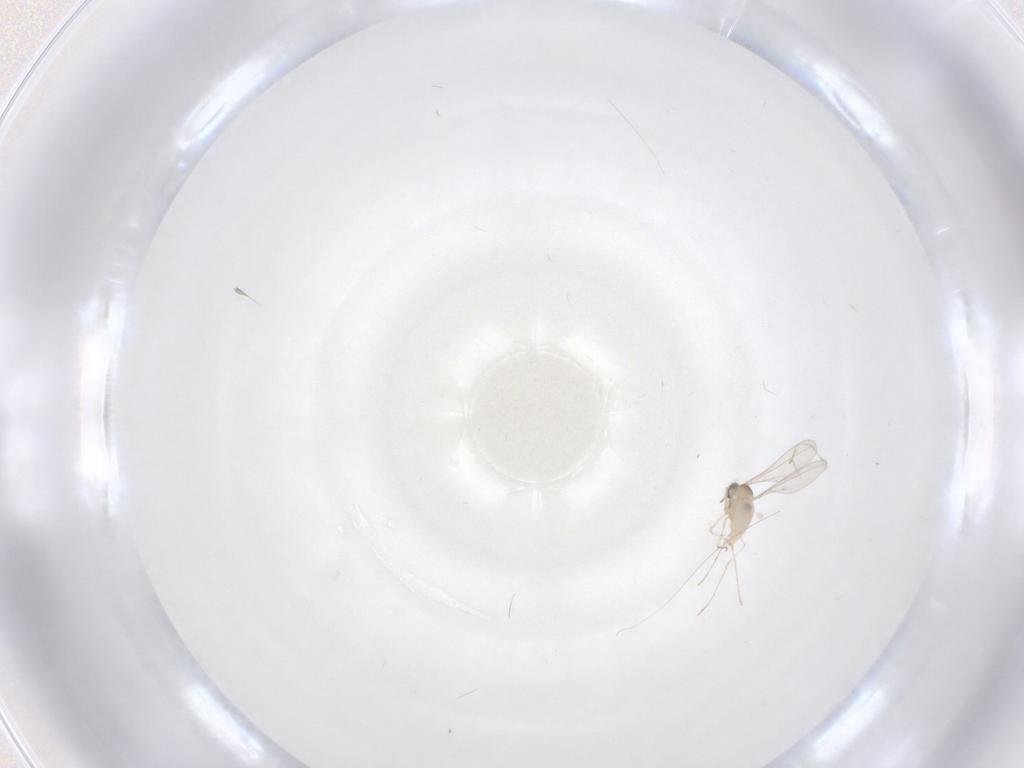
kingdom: Animalia
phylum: Arthropoda
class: Insecta
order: Diptera
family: Cecidomyiidae
